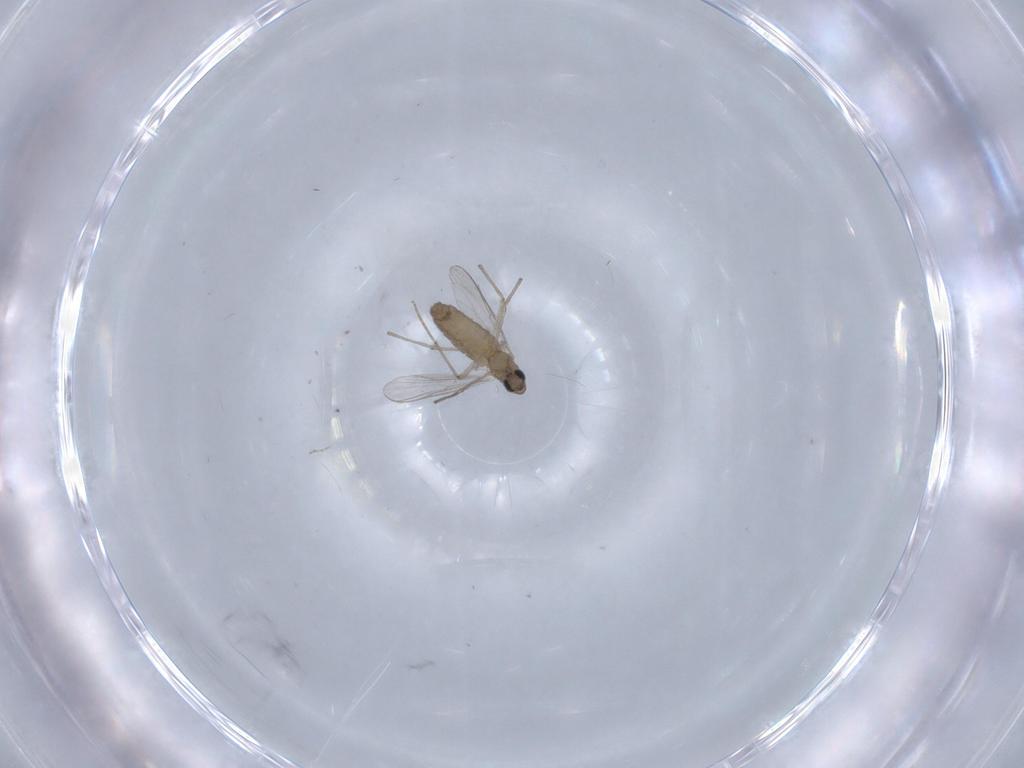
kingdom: Animalia
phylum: Arthropoda
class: Insecta
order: Diptera
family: Chironomidae
